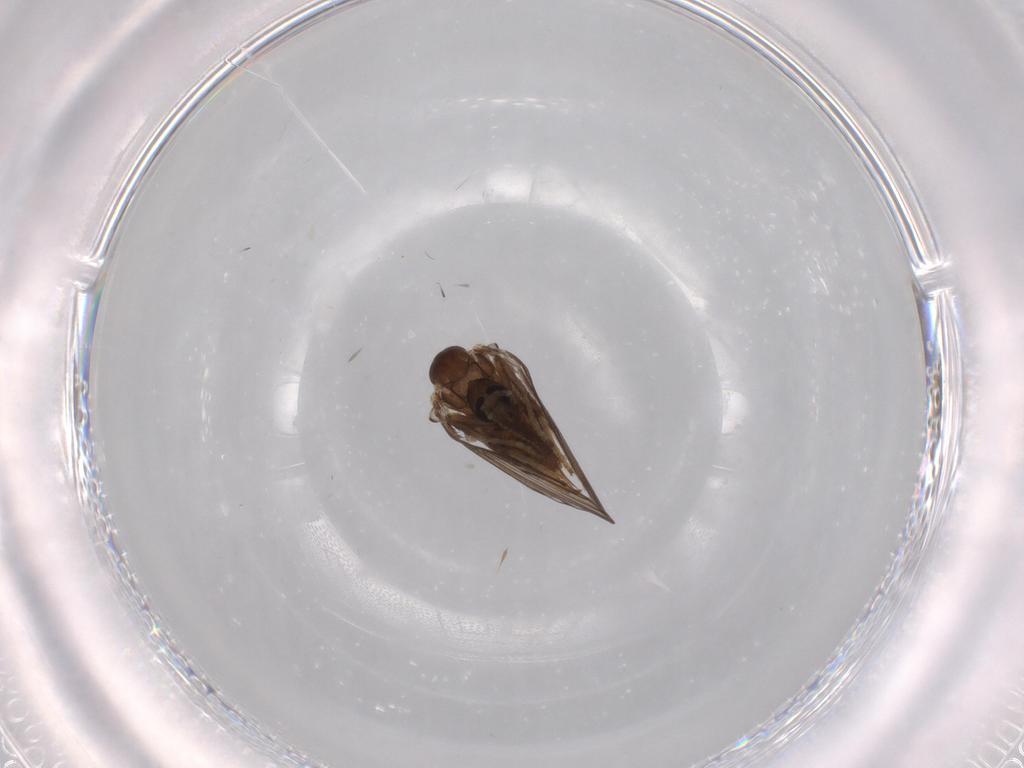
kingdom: Animalia
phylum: Arthropoda
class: Insecta
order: Diptera
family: Psychodidae
